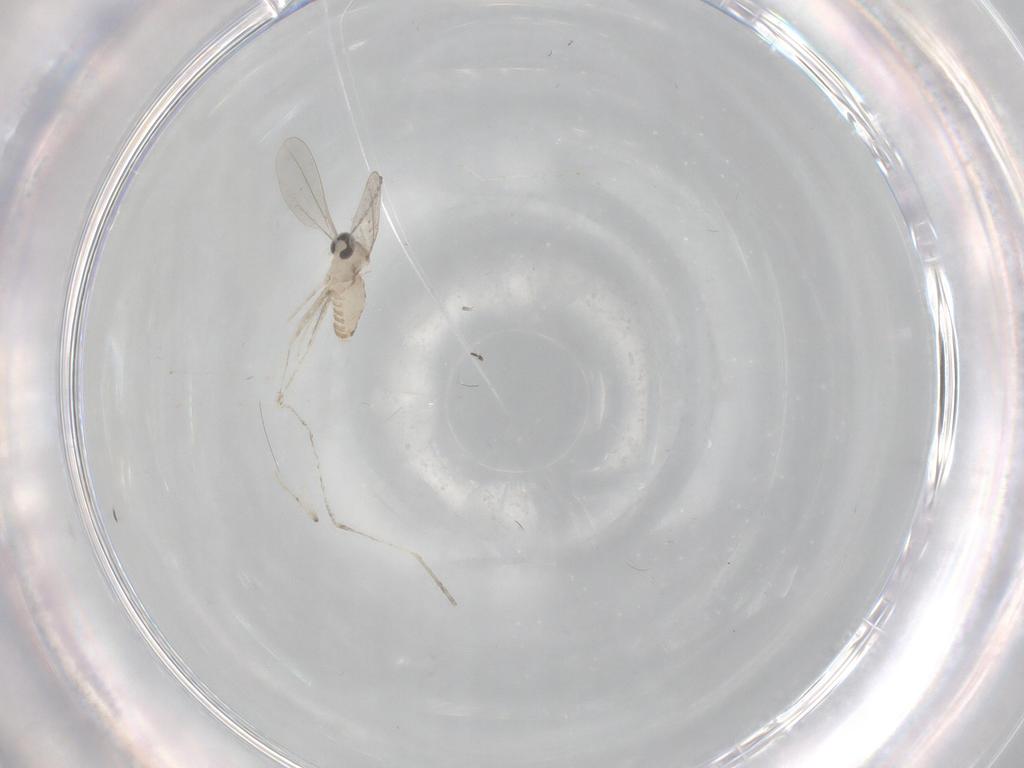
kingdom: Animalia
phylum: Arthropoda
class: Insecta
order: Diptera
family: Cecidomyiidae
